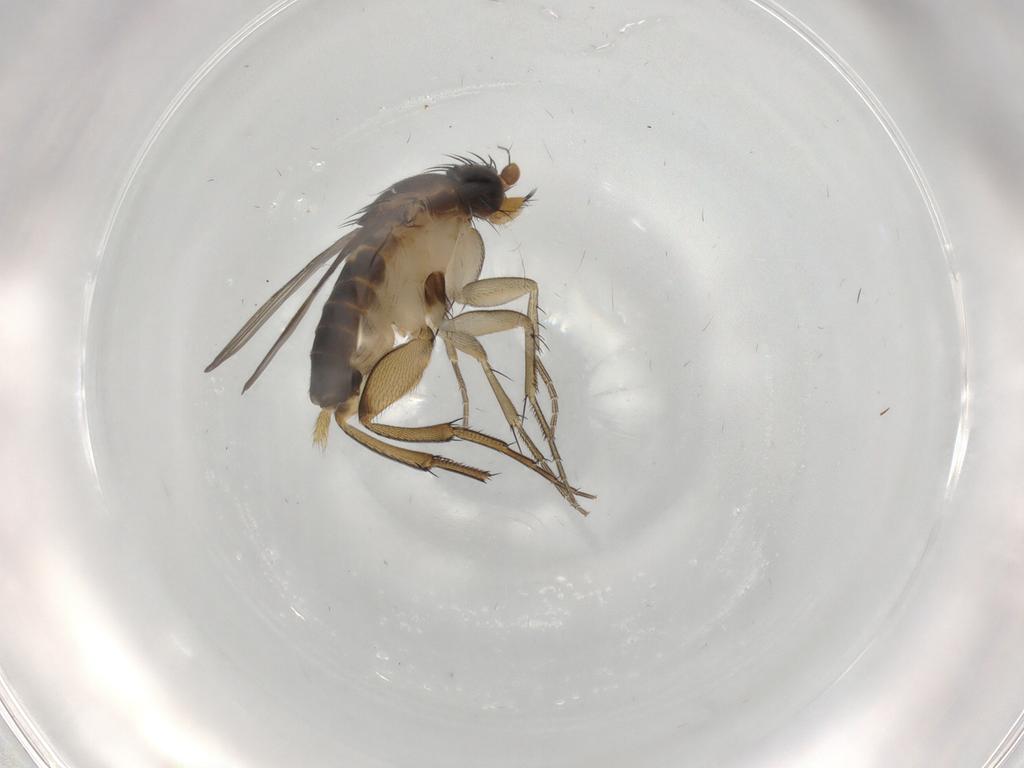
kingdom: Animalia
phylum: Arthropoda
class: Insecta
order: Diptera
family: Phoridae
